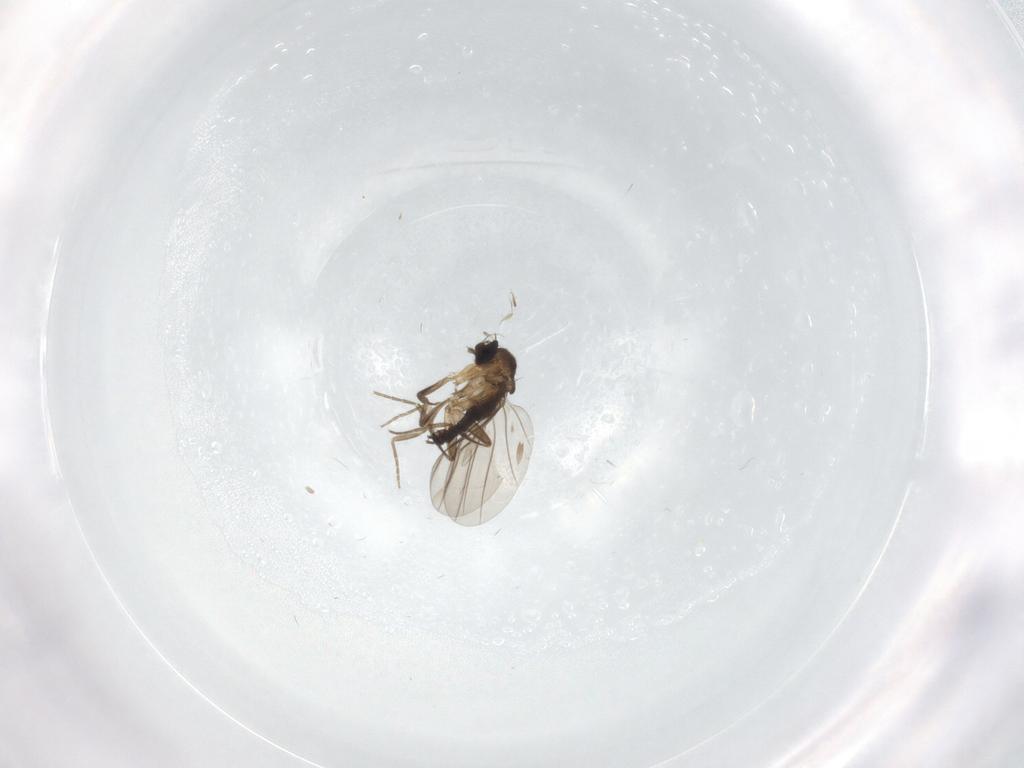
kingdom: Animalia
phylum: Arthropoda
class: Insecta
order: Diptera
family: Phoridae
